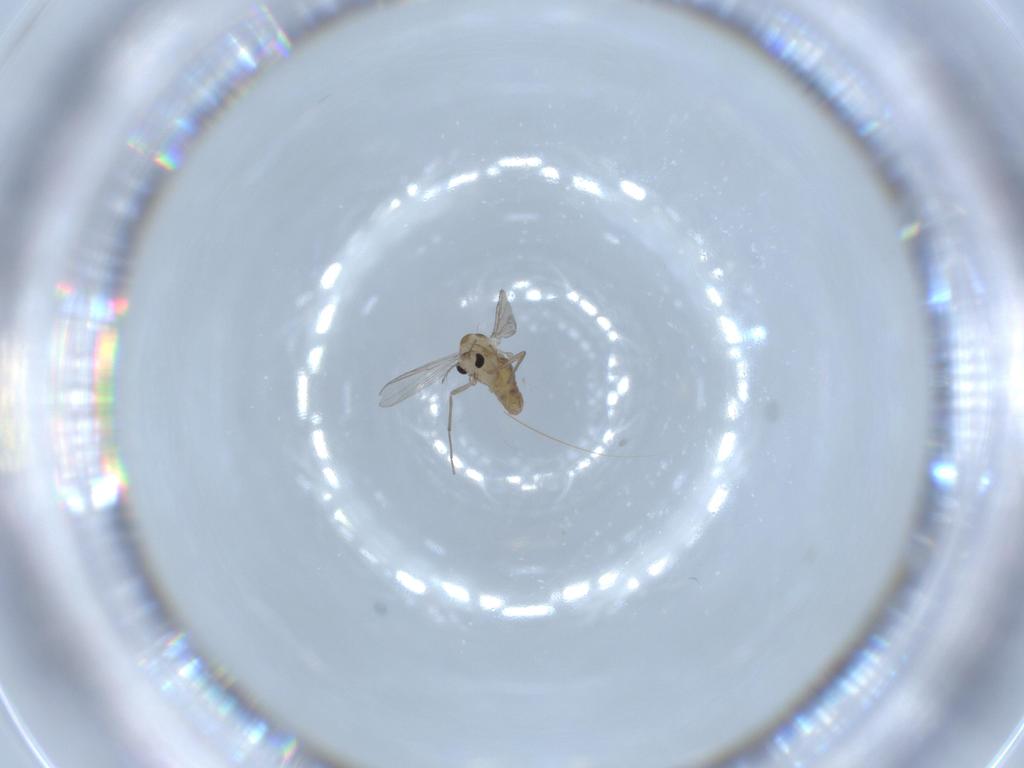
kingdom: Animalia
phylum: Arthropoda
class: Insecta
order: Diptera
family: Chironomidae
